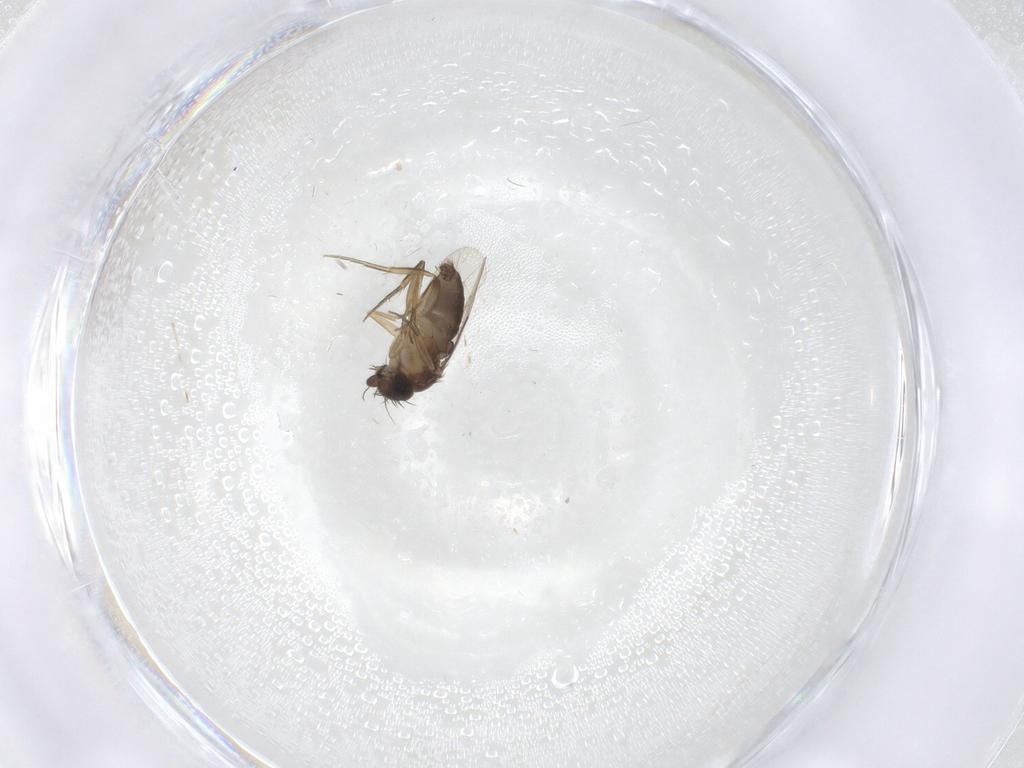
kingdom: Animalia
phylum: Arthropoda
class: Insecta
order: Diptera
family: Phoridae
